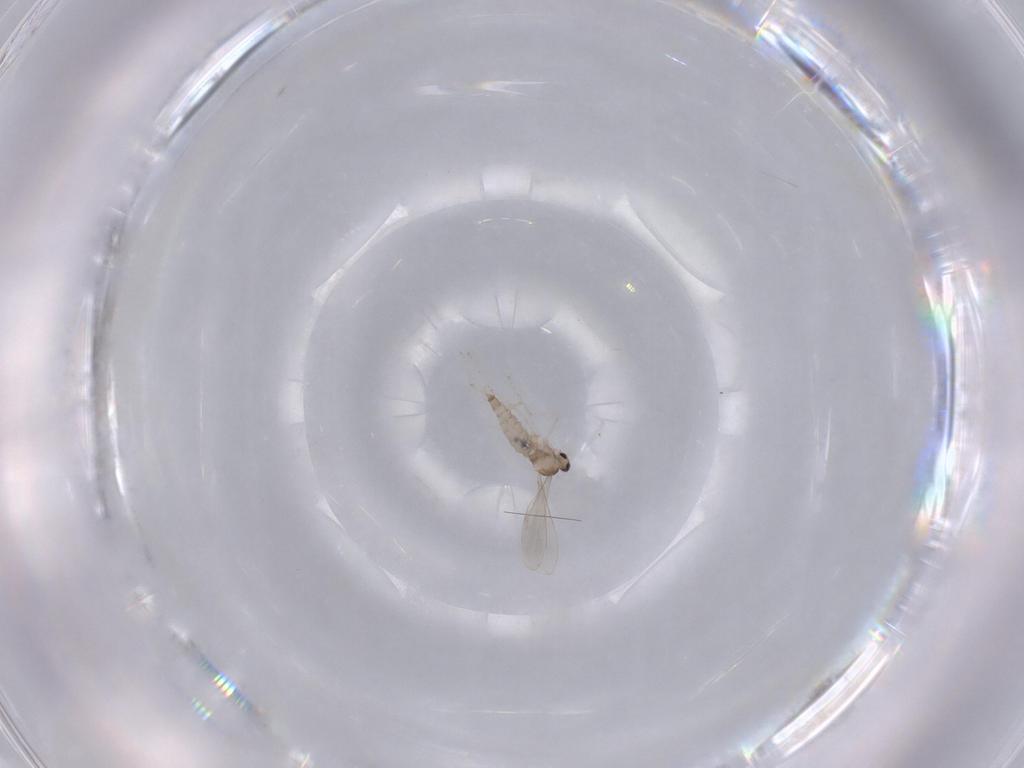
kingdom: Animalia
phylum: Arthropoda
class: Insecta
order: Diptera
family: Cecidomyiidae
